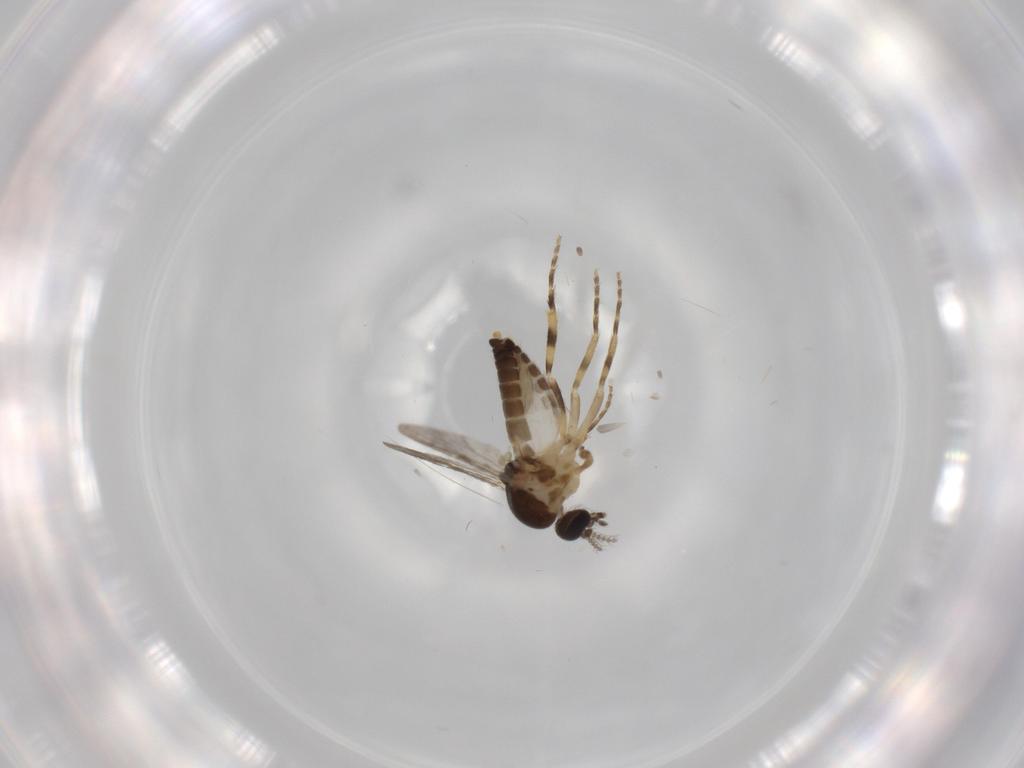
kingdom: Animalia
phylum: Arthropoda
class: Insecta
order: Diptera
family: Ceratopogonidae
